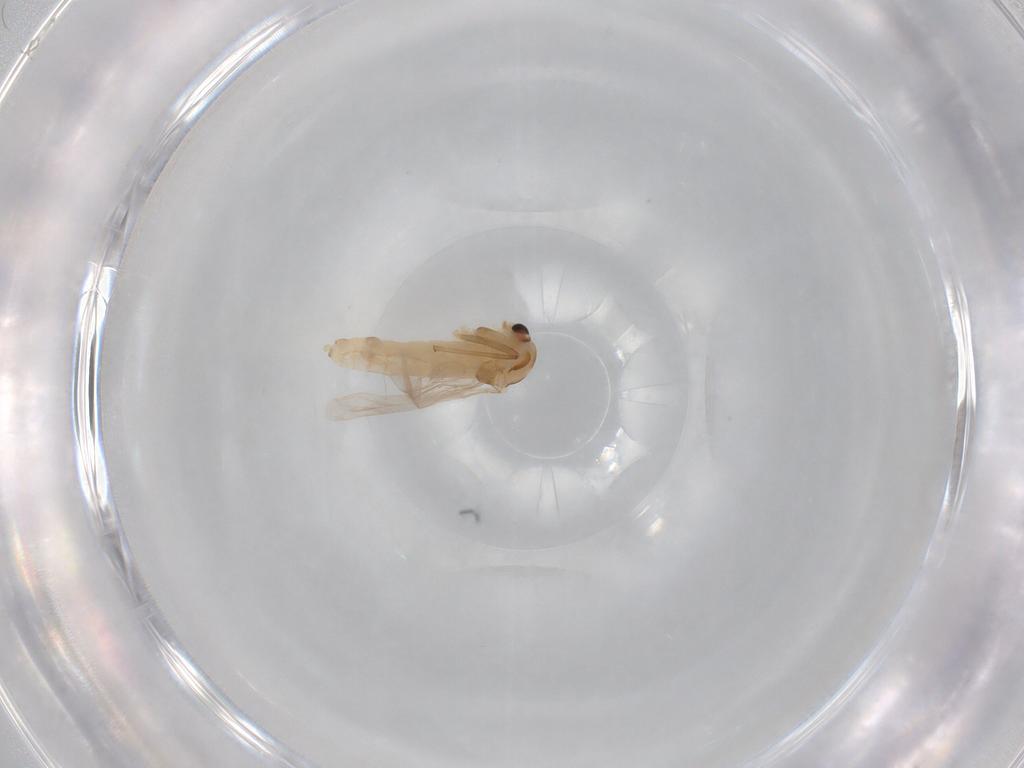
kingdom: Animalia
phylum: Arthropoda
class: Insecta
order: Diptera
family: Chironomidae
